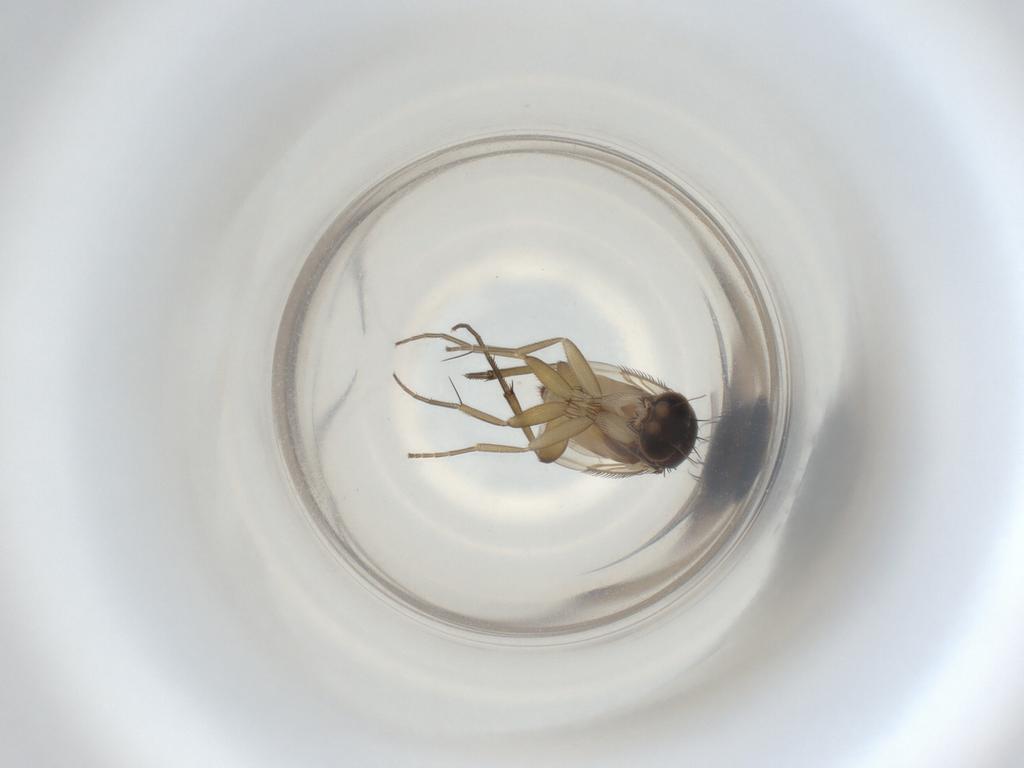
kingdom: Animalia
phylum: Arthropoda
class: Insecta
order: Diptera
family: Phoridae
